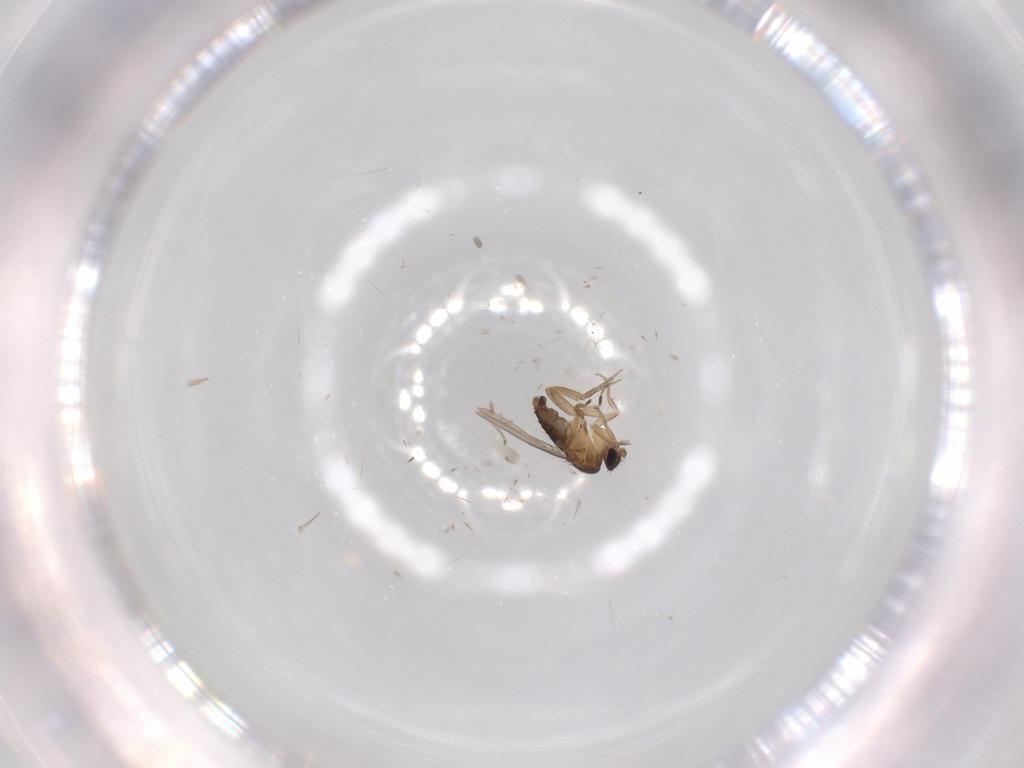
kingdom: Animalia
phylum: Arthropoda
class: Insecta
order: Diptera
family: Phoridae
